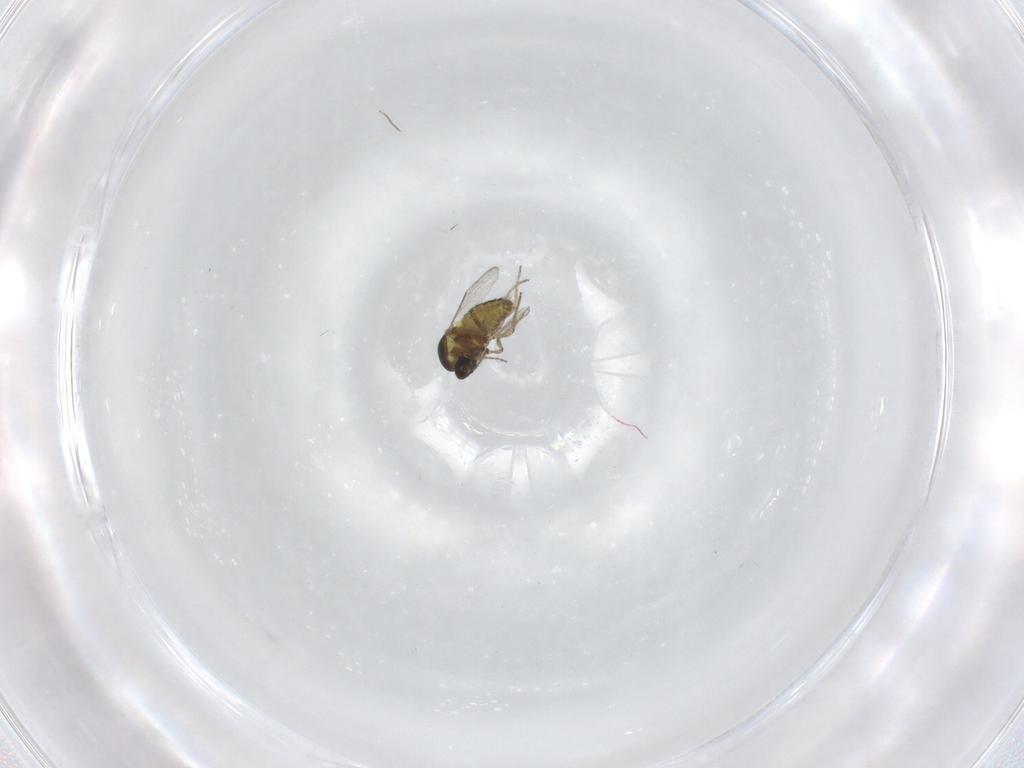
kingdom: Animalia
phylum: Arthropoda
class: Insecta
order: Diptera
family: Ceratopogonidae
